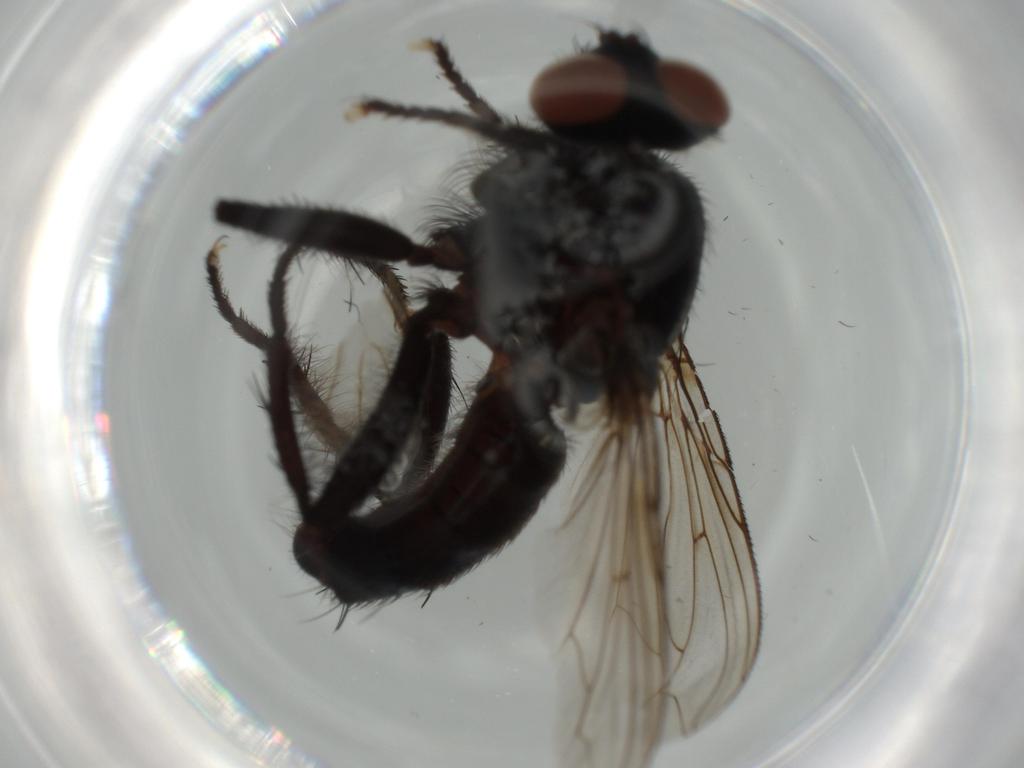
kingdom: Animalia
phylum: Arthropoda
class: Insecta
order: Diptera
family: Sarcophagidae
